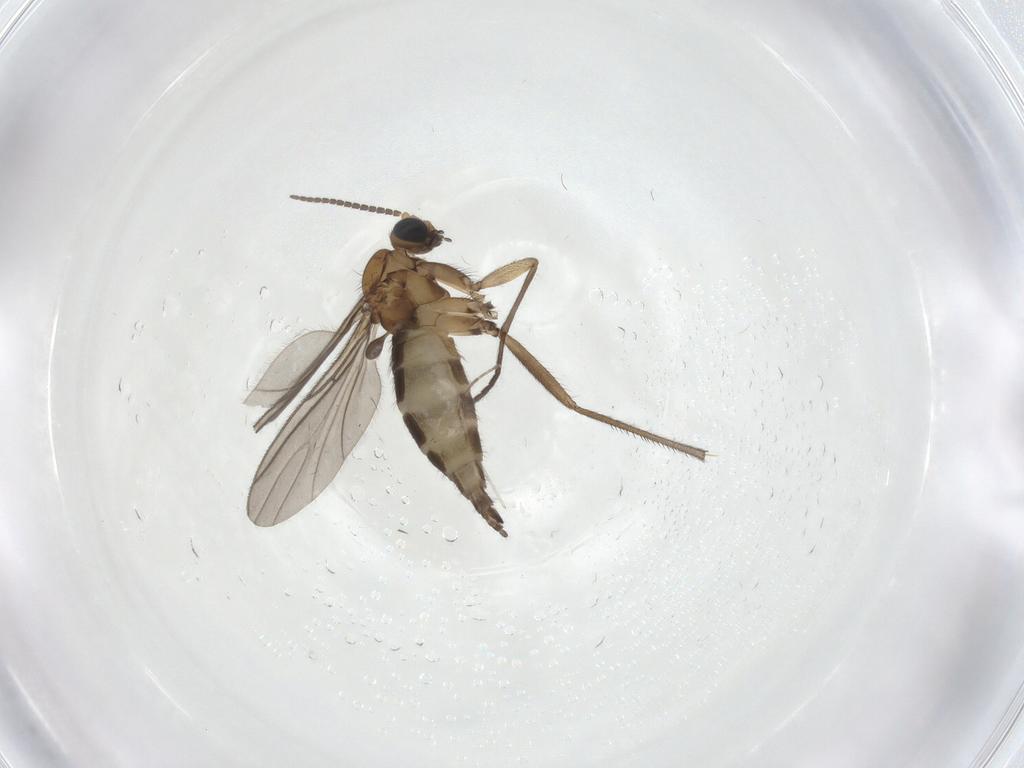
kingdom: Animalia
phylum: Arthropoda
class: Insecta
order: Diptera
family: Sciaridae
